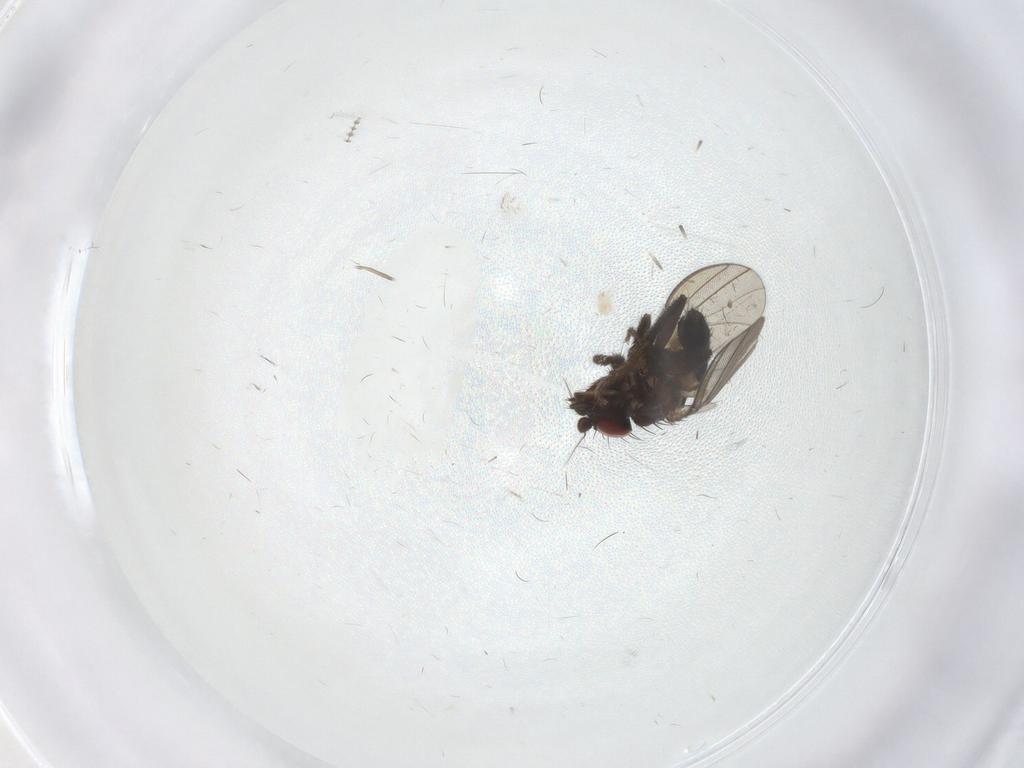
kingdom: Animalia
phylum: Arthropoda
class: Insecta
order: Diptera
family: Milichiidae
